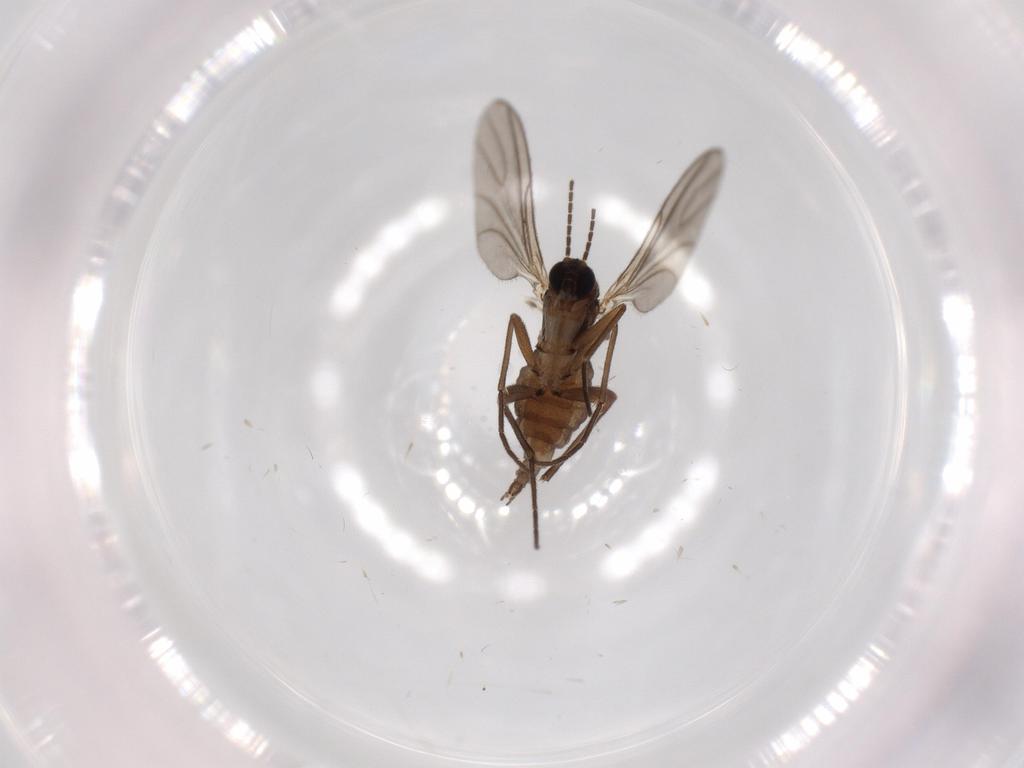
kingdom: Animalia
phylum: Arthropoda
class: Insecta
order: Diptera
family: Sciaridae
